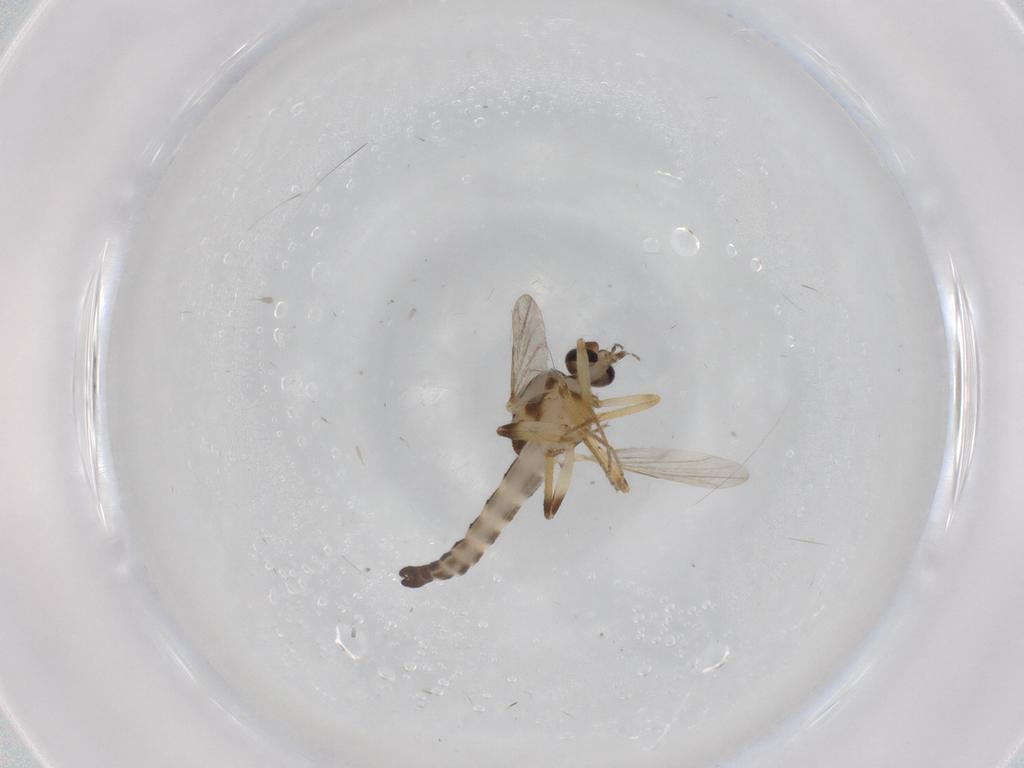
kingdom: Animalia
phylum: Arthropoda
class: Insecta
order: Diptera
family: Ceratopogonidae
